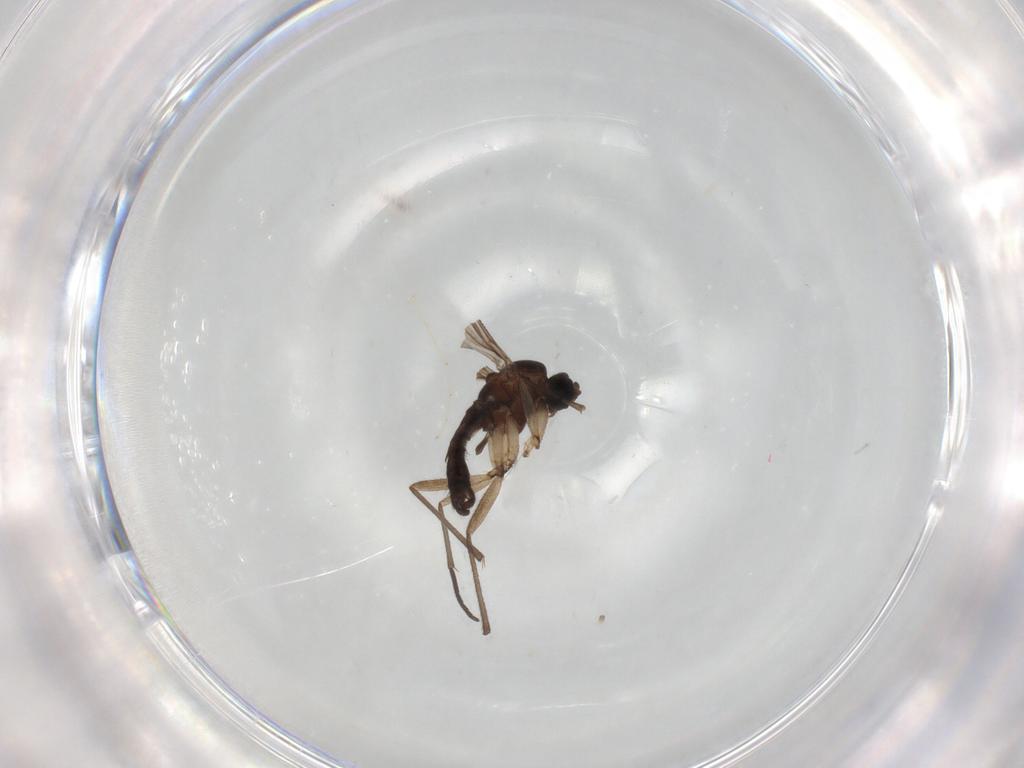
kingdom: Animalia
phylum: Arthropoda
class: Insecta
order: Diptera
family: Sciaridae
